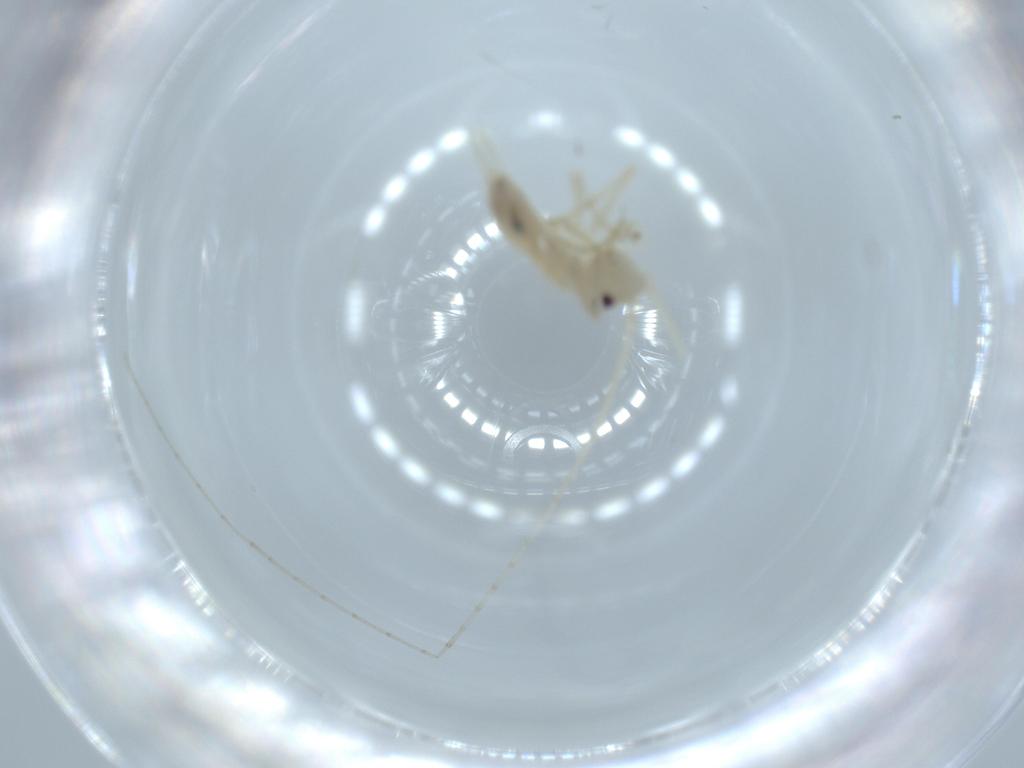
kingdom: Animalia
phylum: Arthropoda
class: Insecta
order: Orthoptera
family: Trigonidiidae
